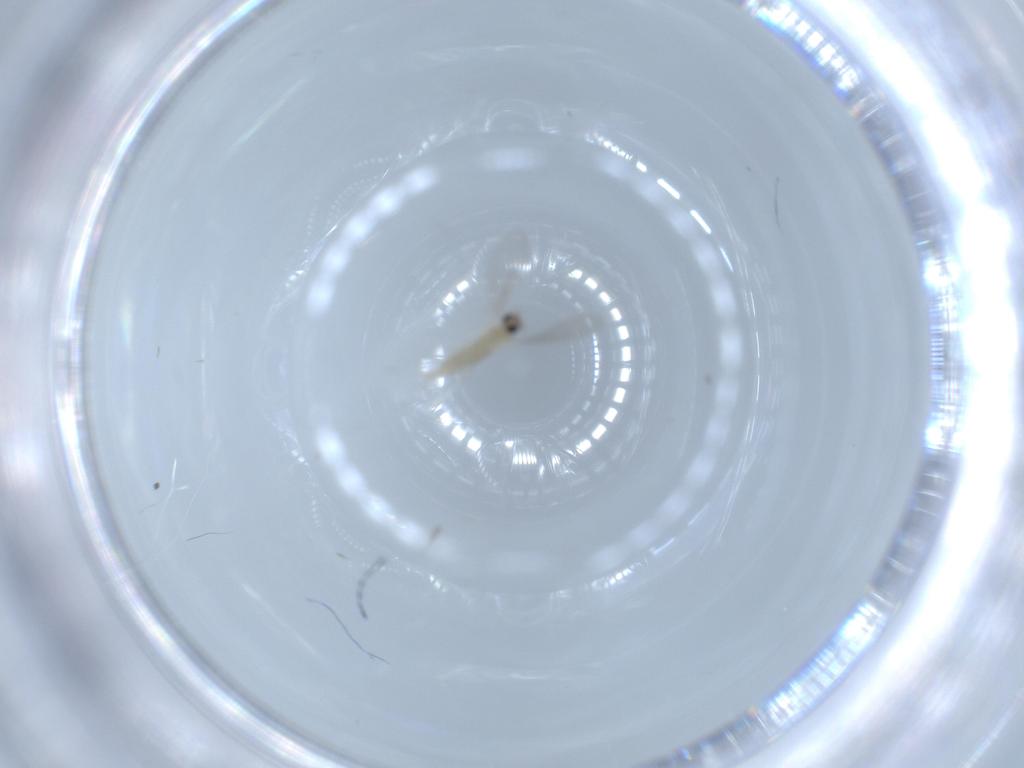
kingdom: Animalia
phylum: Arthropoda
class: Insecta
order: Diptera
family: Cecidomyiidae
